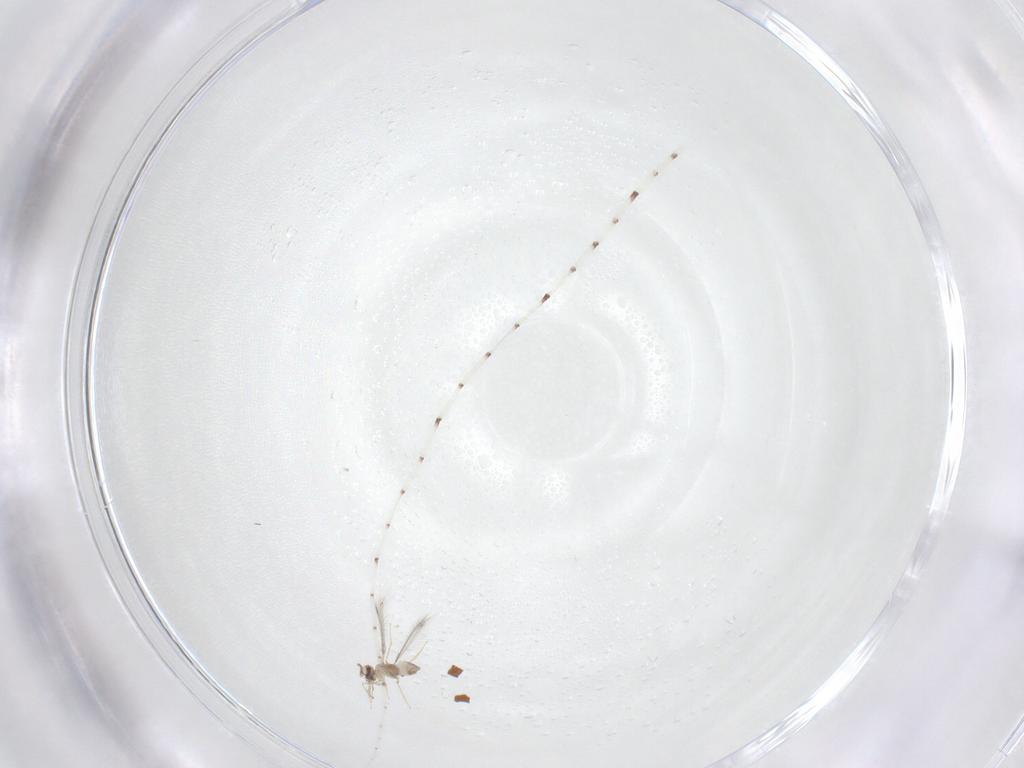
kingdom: Animalia
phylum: Arthropoda
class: Insecta
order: Hymenoptera
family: Mymaridae
